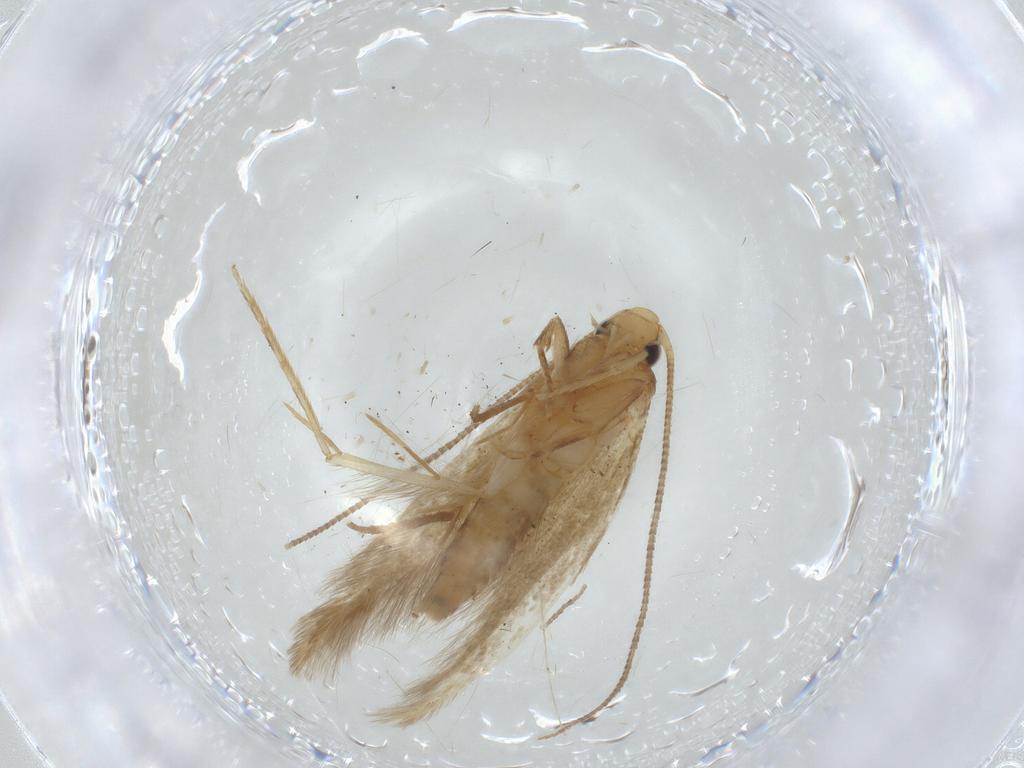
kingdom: Animalia
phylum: Arthropoda
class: Insecta
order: Lepidoptera
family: Tineidae
